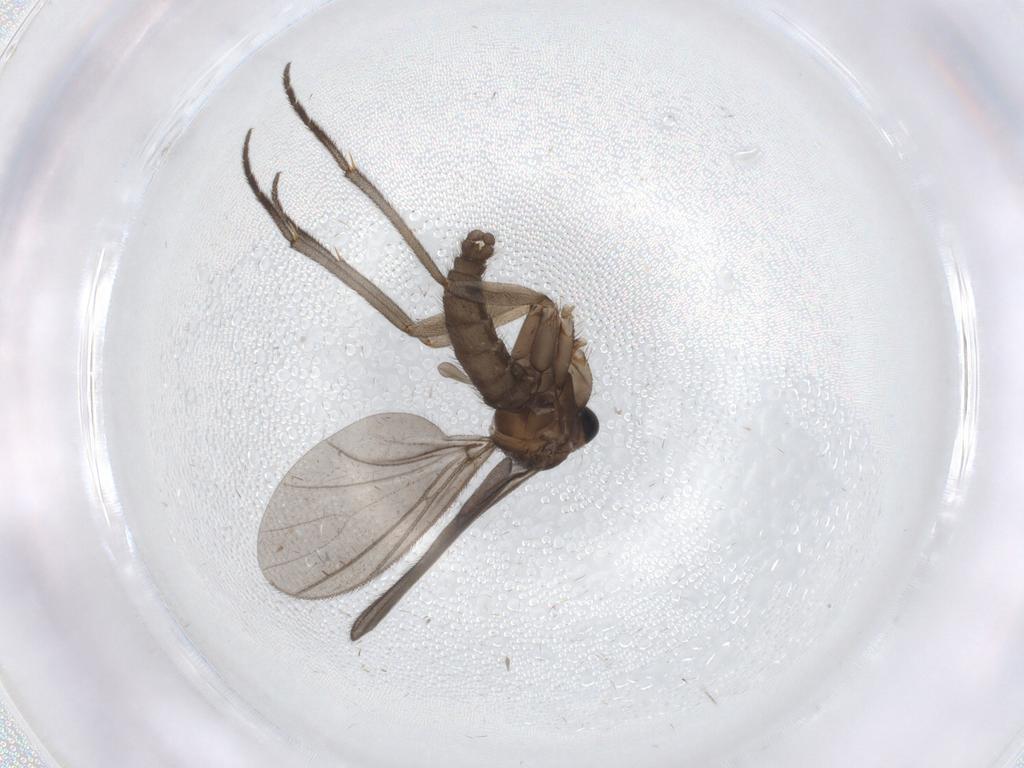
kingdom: Animalia
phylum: Arthropoda
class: Insecta
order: Diptera
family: Sciaridae
